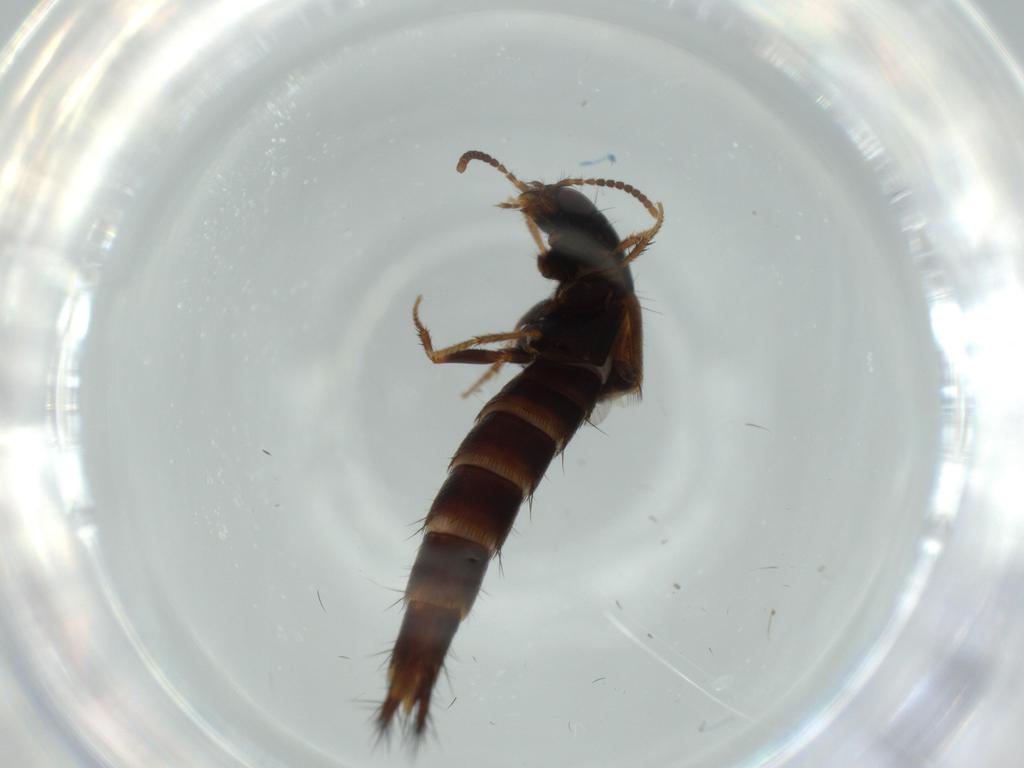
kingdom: Animalia
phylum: Arthropoda
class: Insecta
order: Coleoptera
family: Staphylinidae
